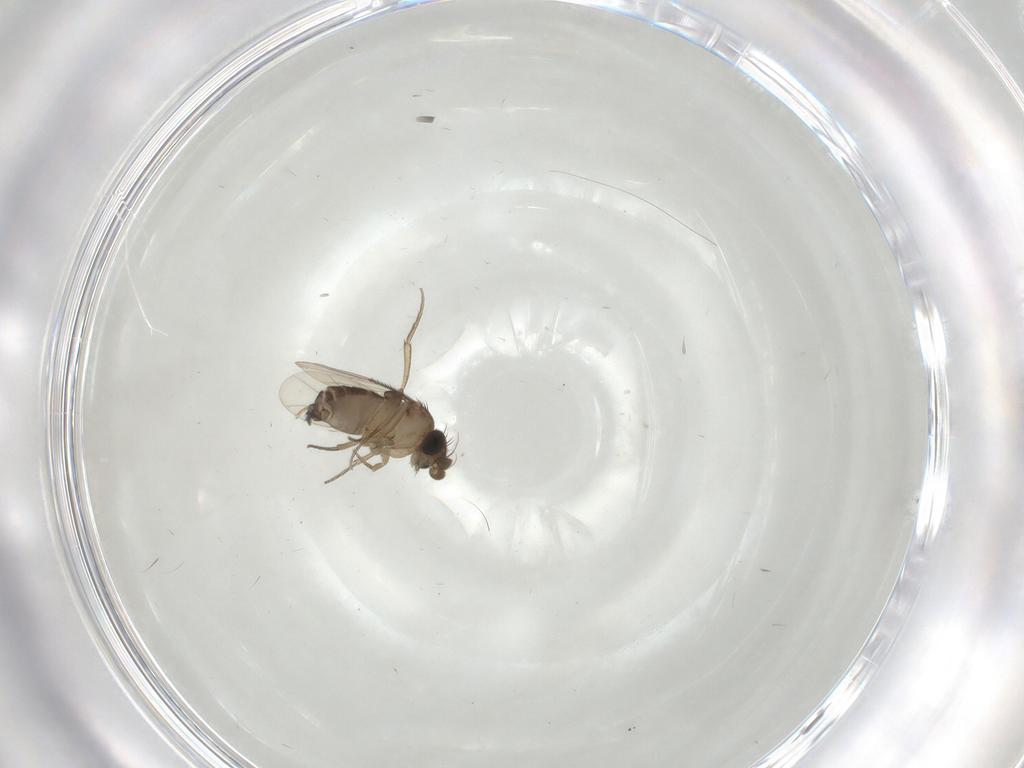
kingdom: Animalia
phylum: Arthropoda
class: Insecta
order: Diptera
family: Phoridae
